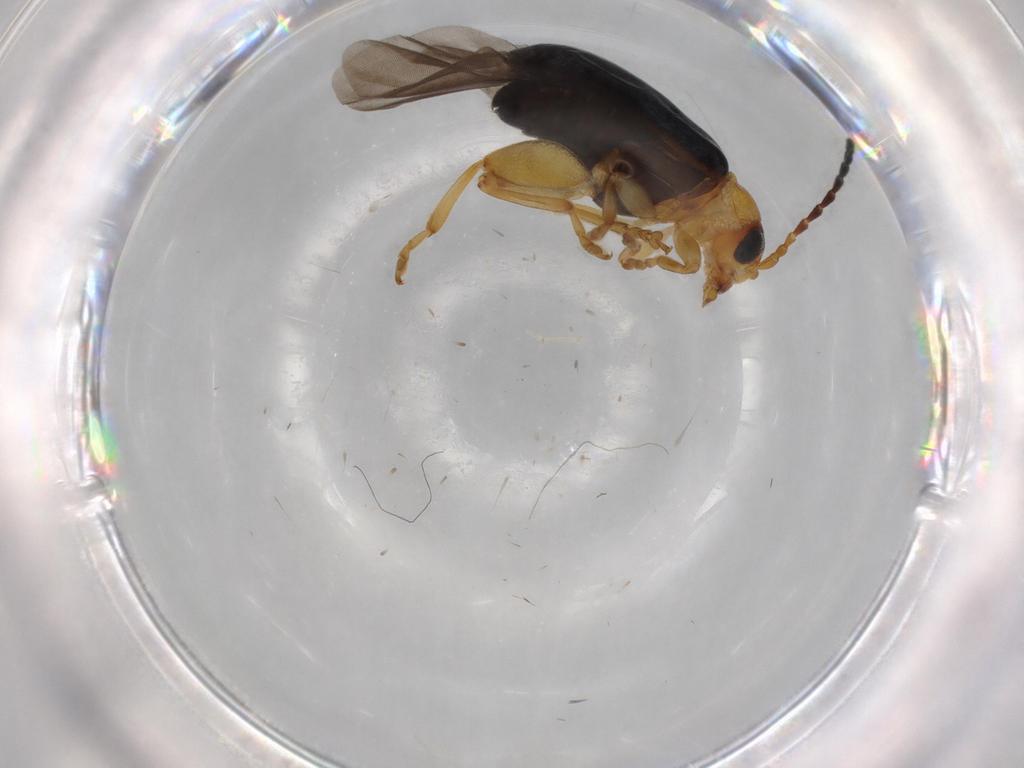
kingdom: Animalia
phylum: Arthropoda
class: Insecta
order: Coleoptera
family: Chrysomelidae
